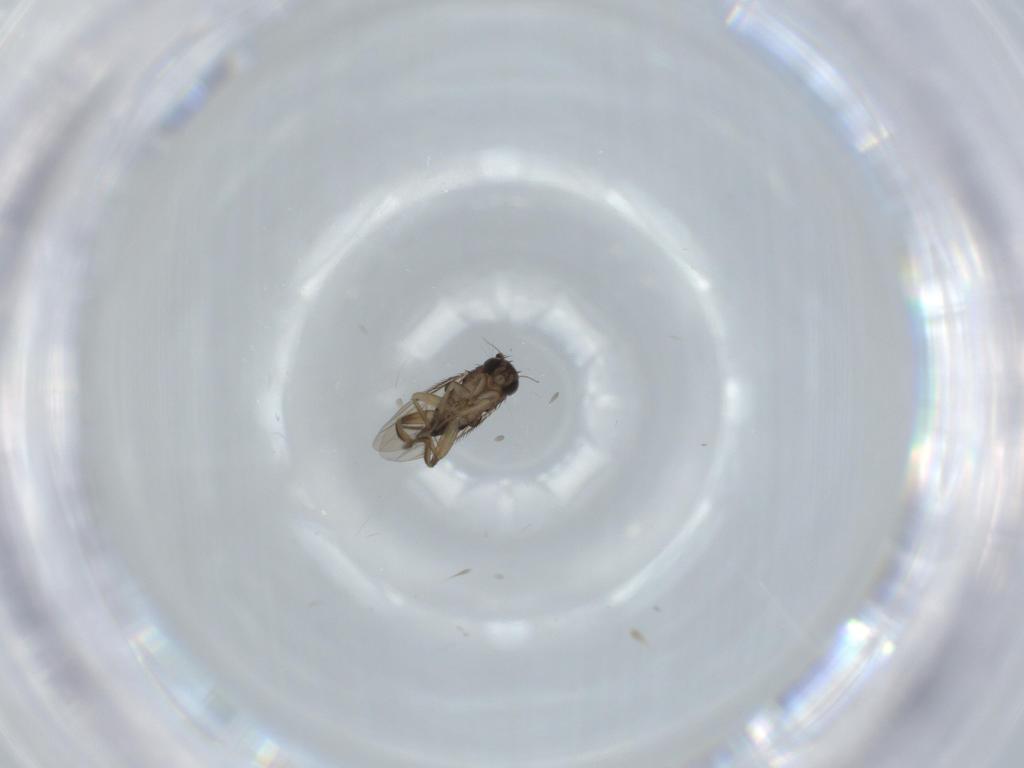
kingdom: Animalia
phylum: Arthropoda
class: Insecta
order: Diptera
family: Phoridae
